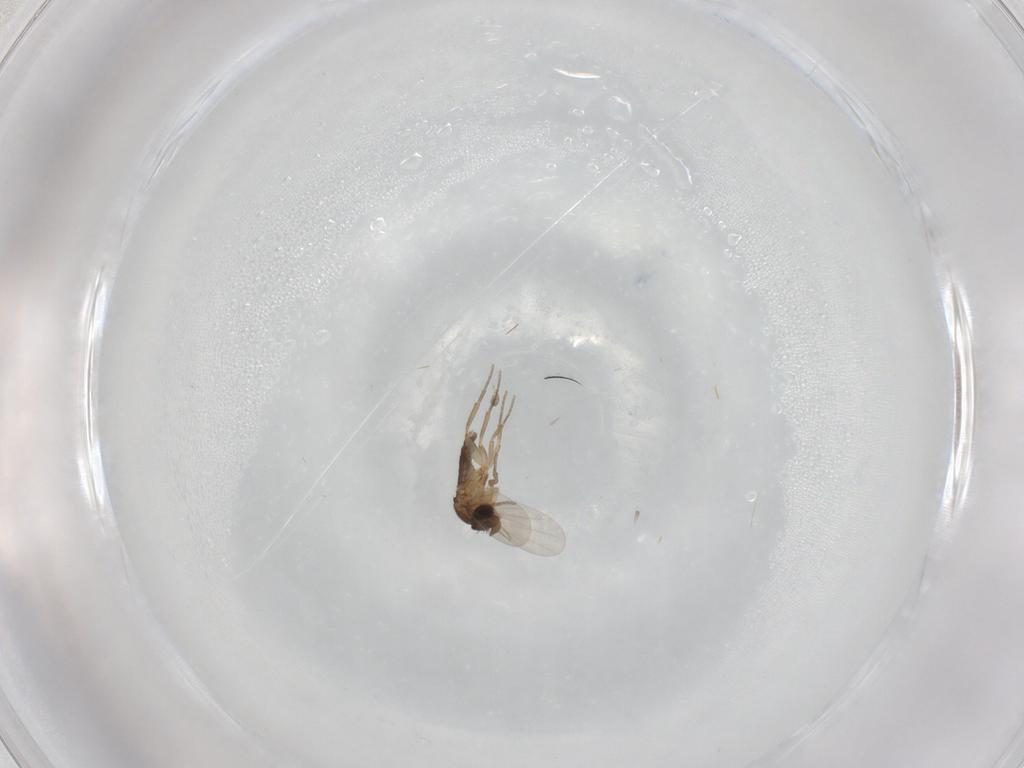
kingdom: Animalia
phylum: Arthropoda
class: Insecta
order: Diptera
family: Phoridae
